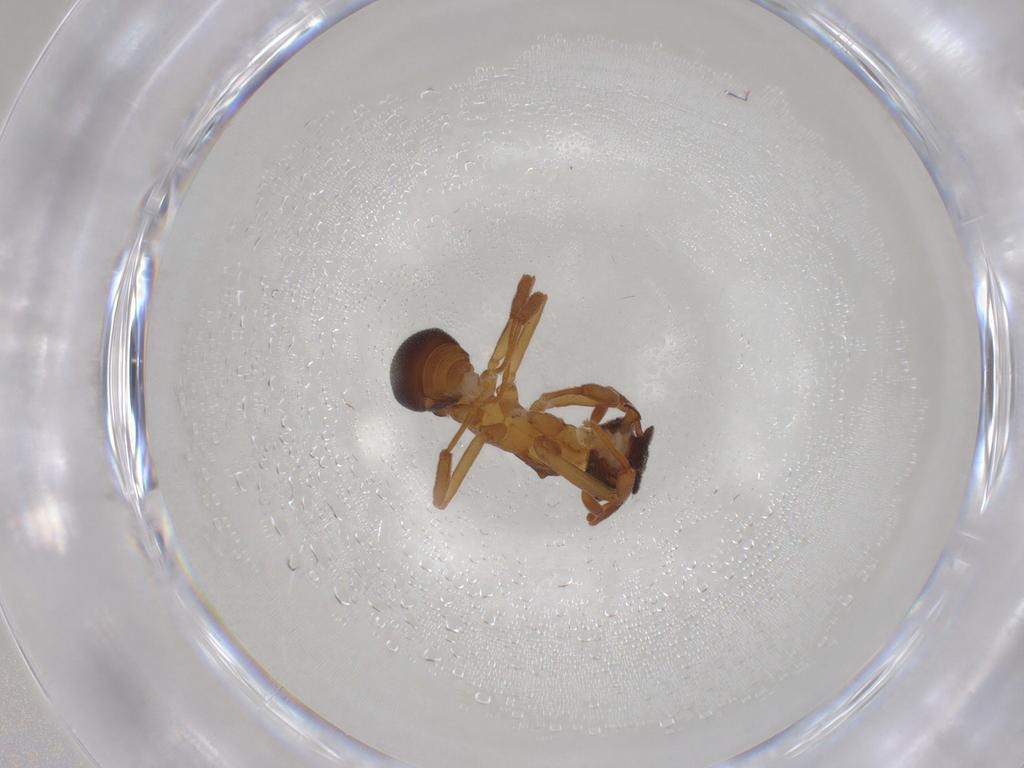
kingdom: Animalia
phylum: Arthropoda
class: Insecta
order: Hymenoptera
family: Formicidae
